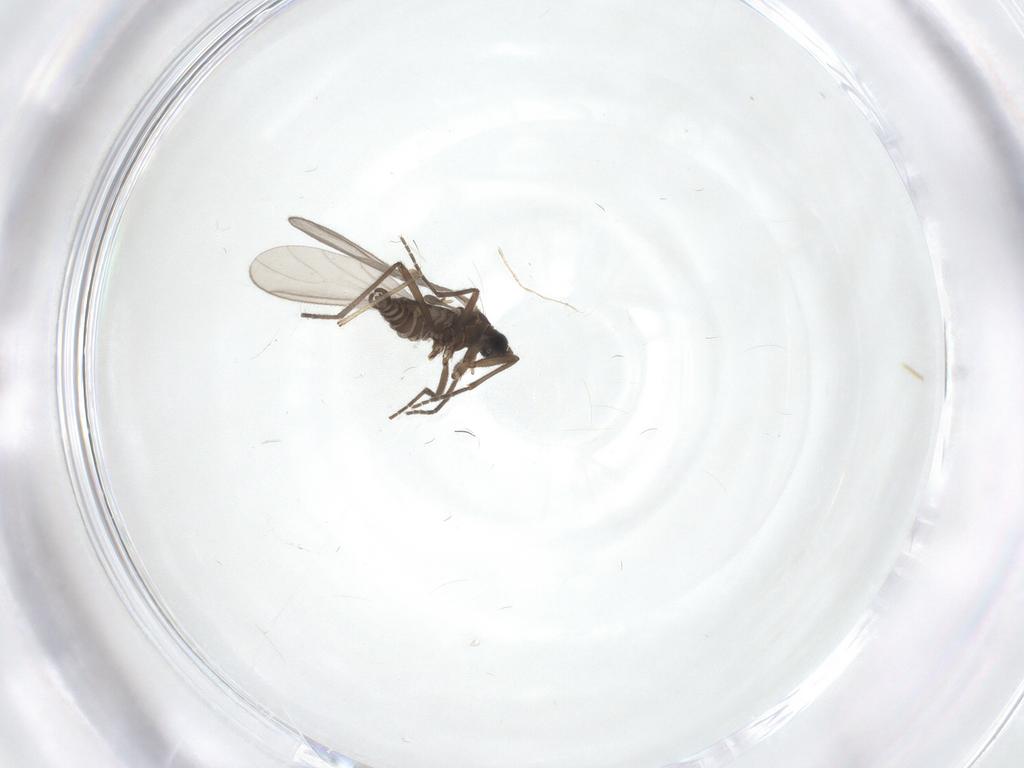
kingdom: Animalia
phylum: Arthropoda
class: Insecta
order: Diptera
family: Sciaridae
